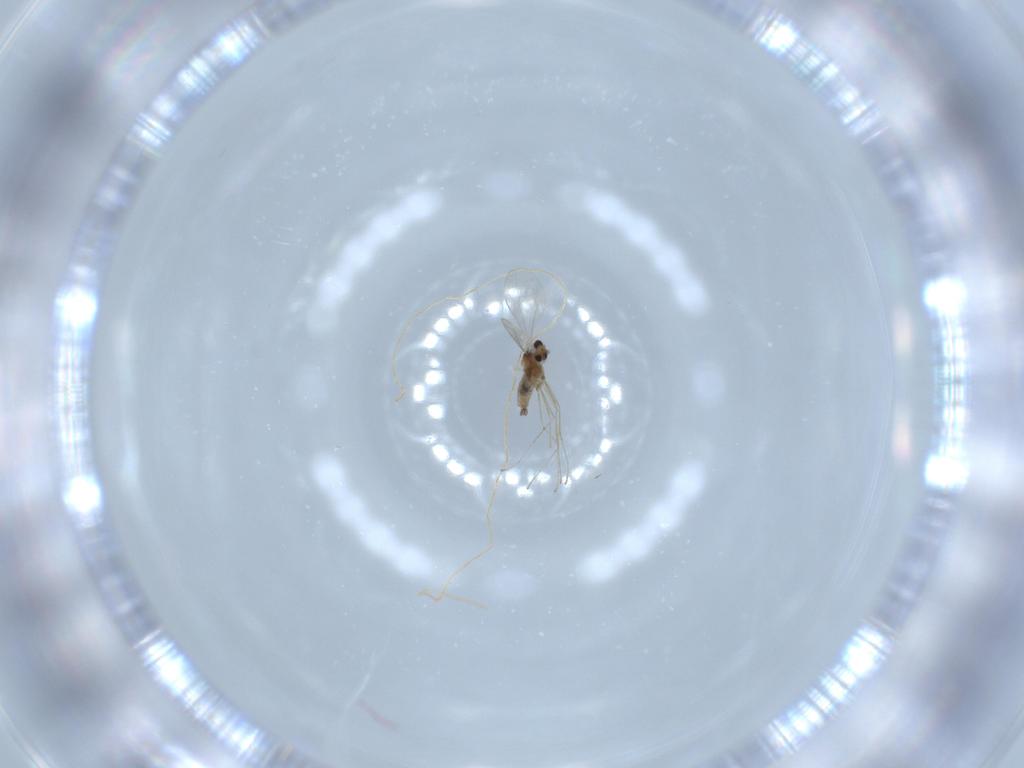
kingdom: Animalia
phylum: Arthropoda
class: Insecta
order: Diptera
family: Cecidomyiidae
